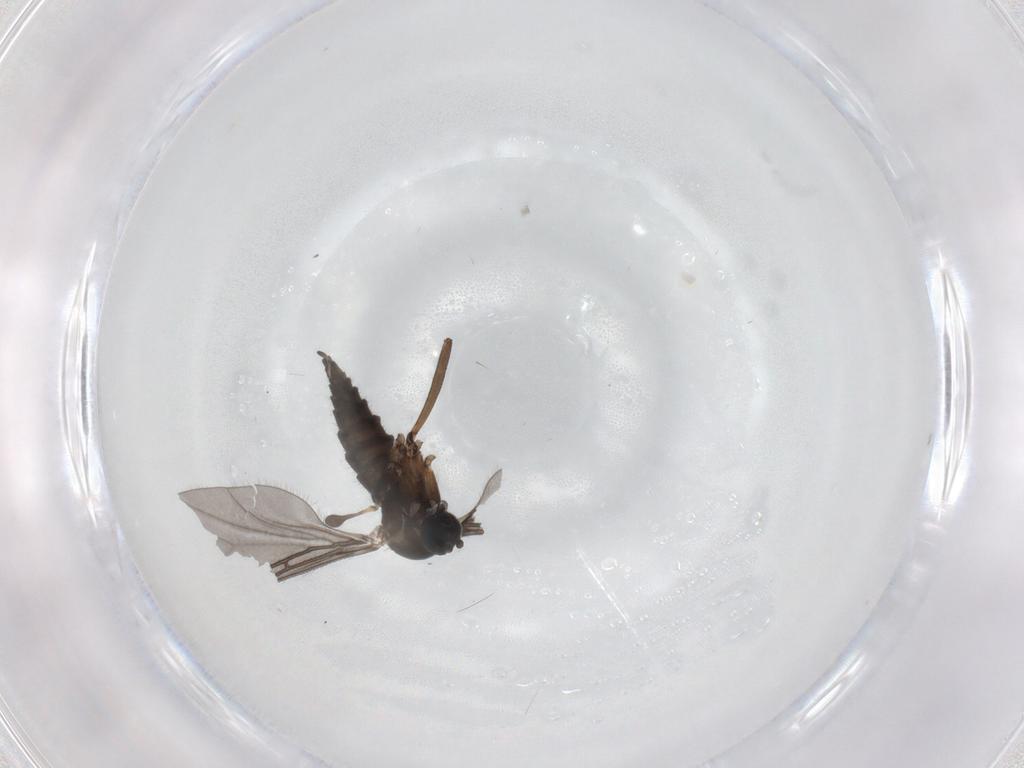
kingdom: Animalia
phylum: Arthropoda
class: Insecta
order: Diptera
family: Sciaridae
